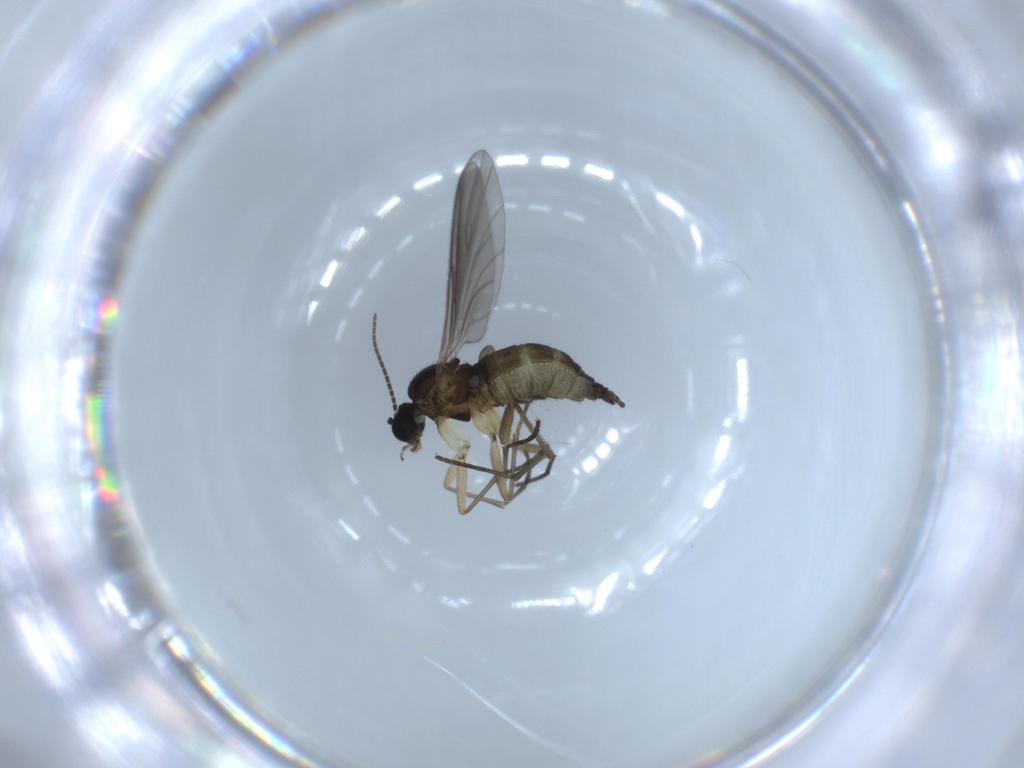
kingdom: Animalia
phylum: Arthropoda
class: Insecta
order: Diptera
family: Sciaridae
